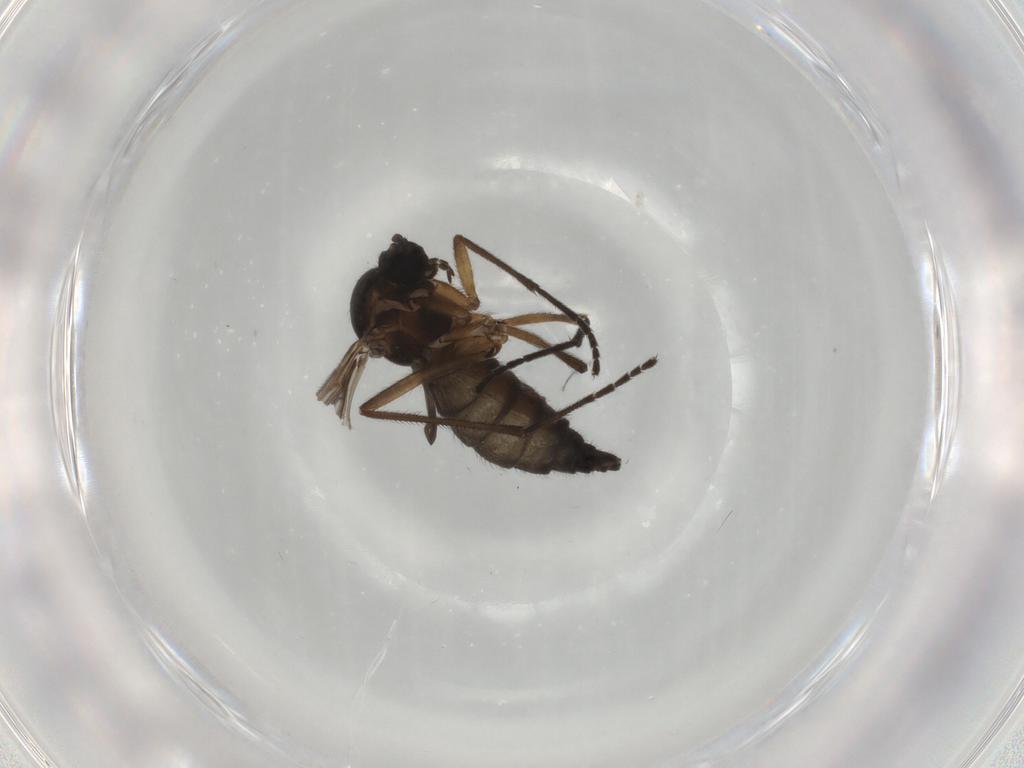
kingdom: Animalia
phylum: Arthropoda
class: Insecta
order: Diptera
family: Sciaridae
